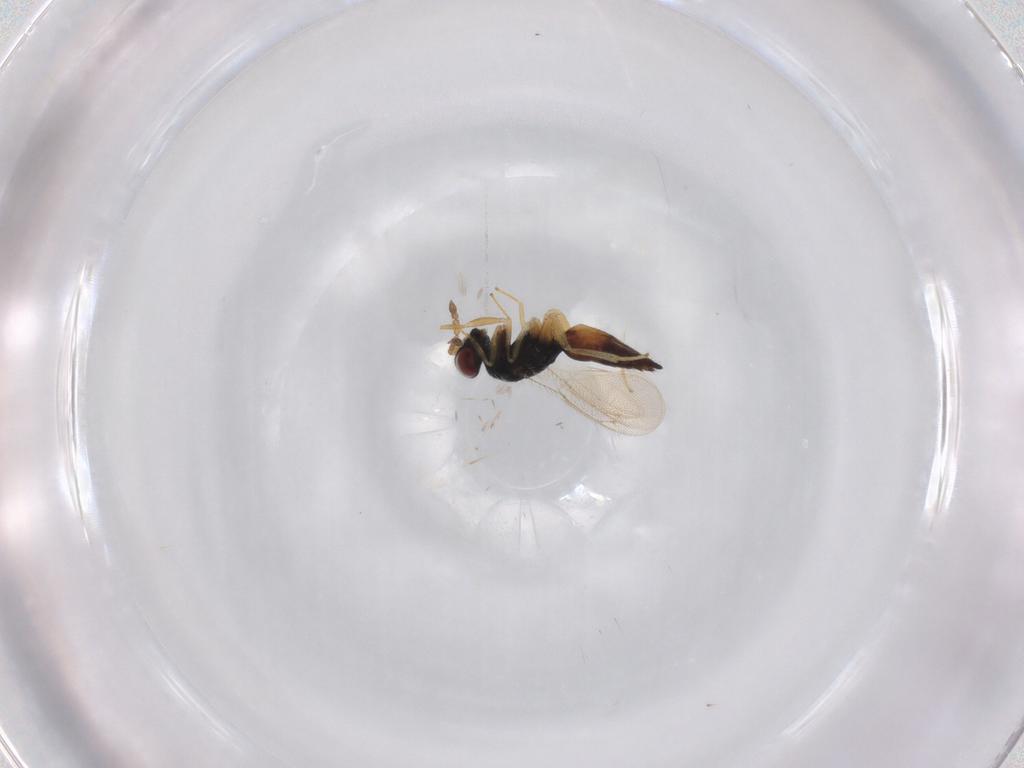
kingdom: Animalia
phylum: Arthropoda
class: Insecta
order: Hymenoptera
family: Eulophidae
